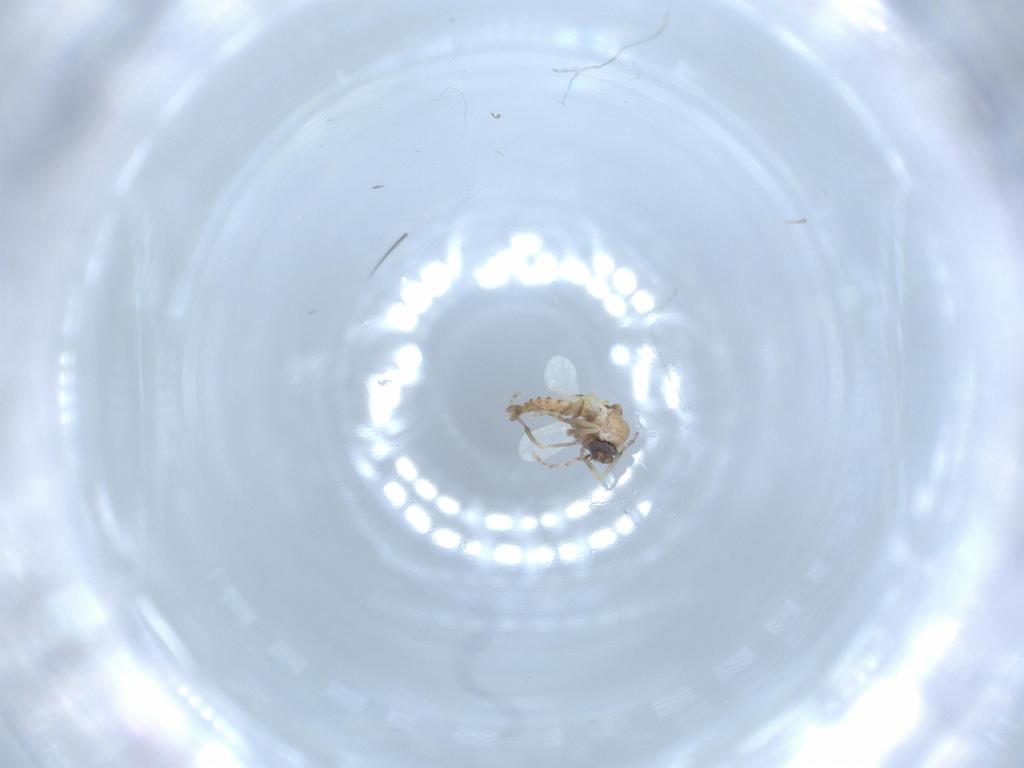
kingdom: Animalia
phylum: Arthropoda
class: Insecta
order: Diptera
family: Ceratopogonidae
